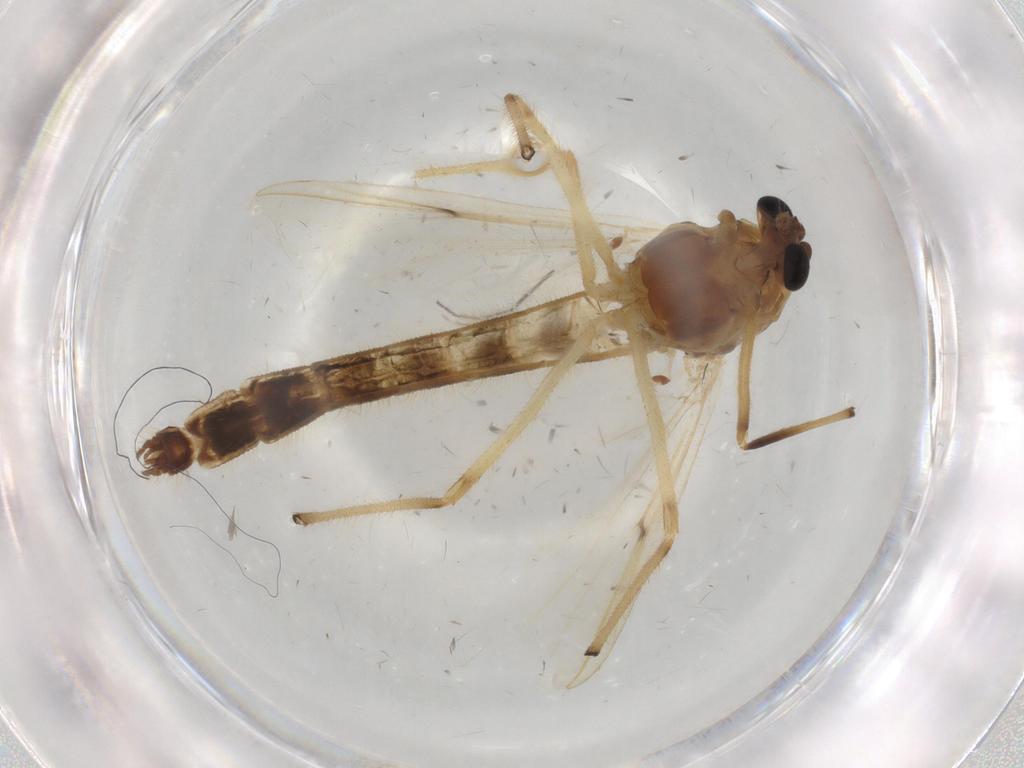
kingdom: Animalia
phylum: Arthropoda
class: Insecta
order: Diptera
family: Chironomidae
